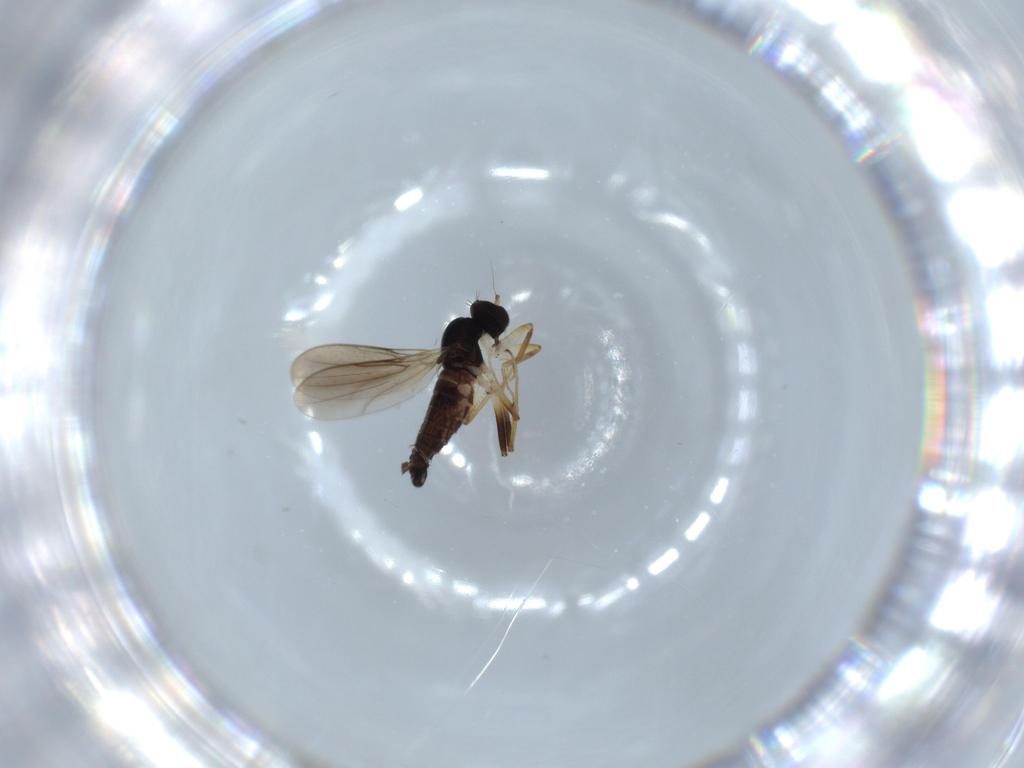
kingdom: Animalia
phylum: Arthropoda
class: Insecta
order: Diptera
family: Hybotidae
